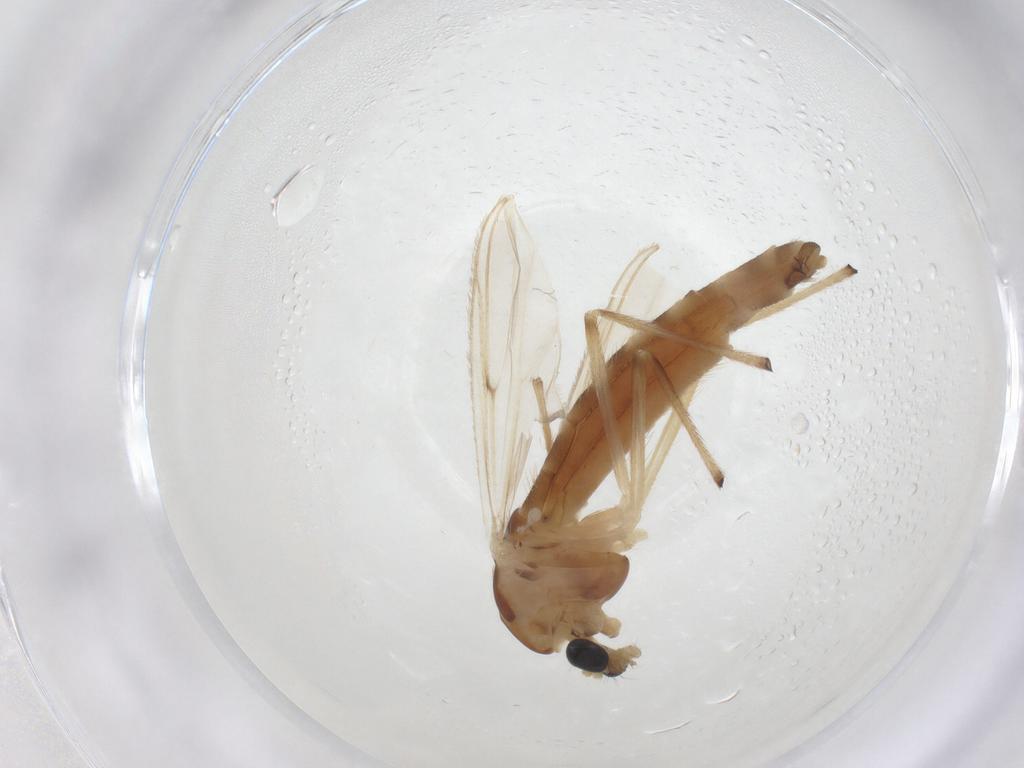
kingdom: Animalia
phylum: Arthropoda
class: Insecta
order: Diptera
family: Chironomidae
